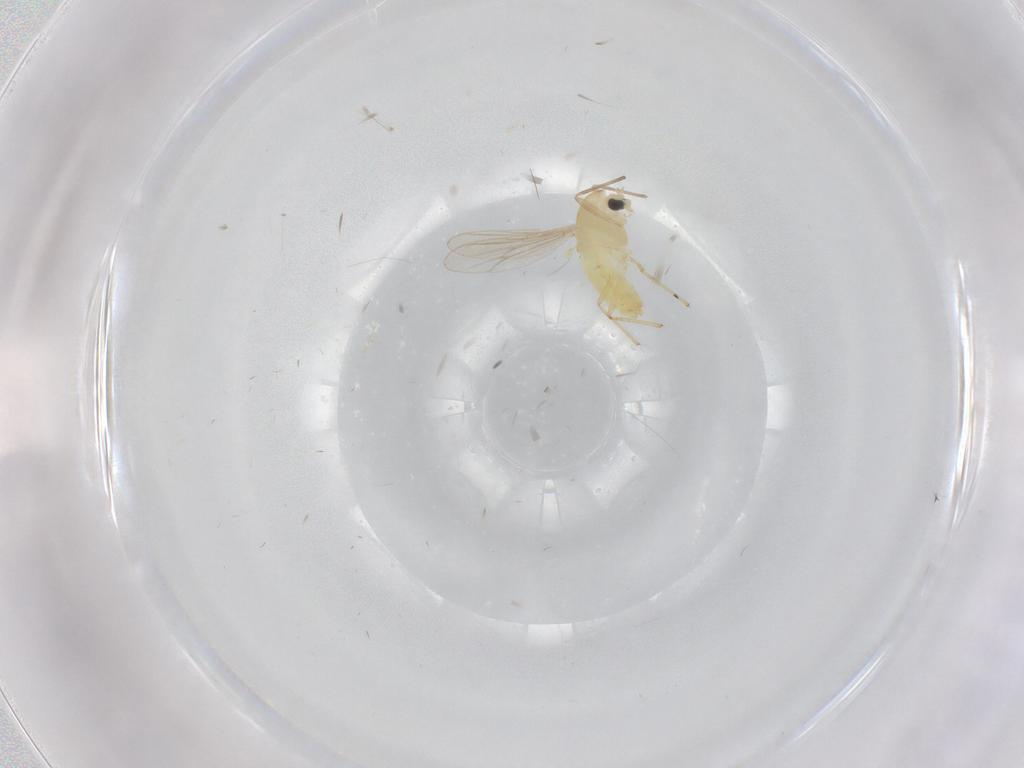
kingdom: Animalia
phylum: Arthropoda
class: Insecta
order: Diptera
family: Chironomidae
